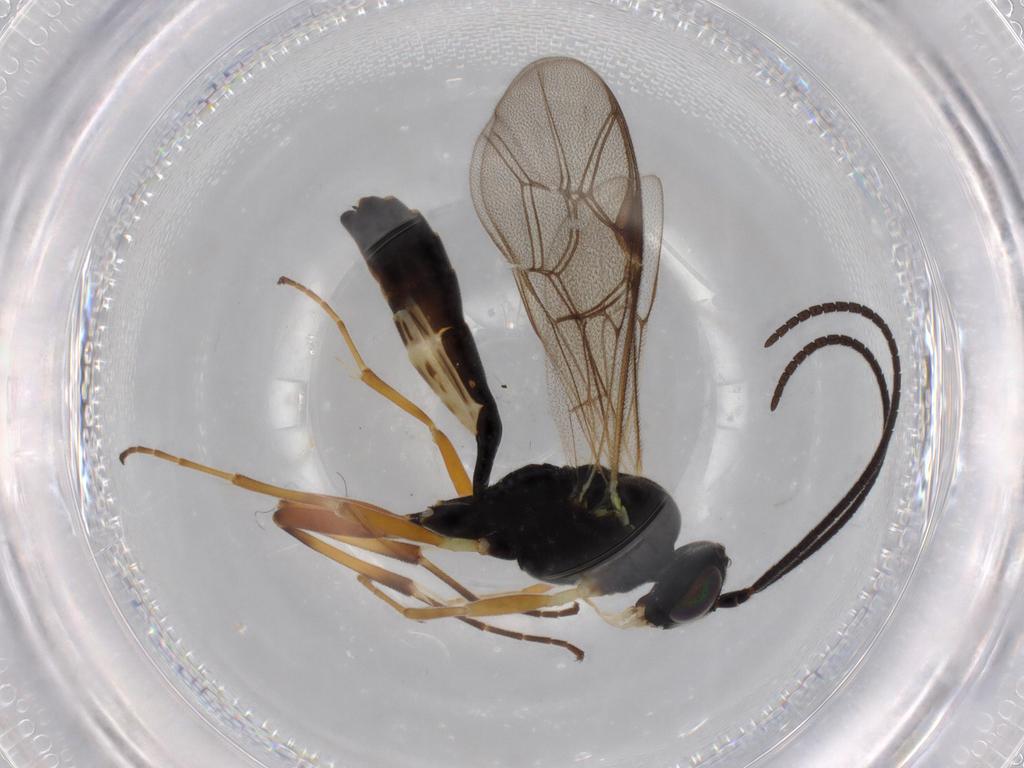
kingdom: Animalia
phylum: Arthropoda
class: Insecta
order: Hymenoptera
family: Ichneumonidae
